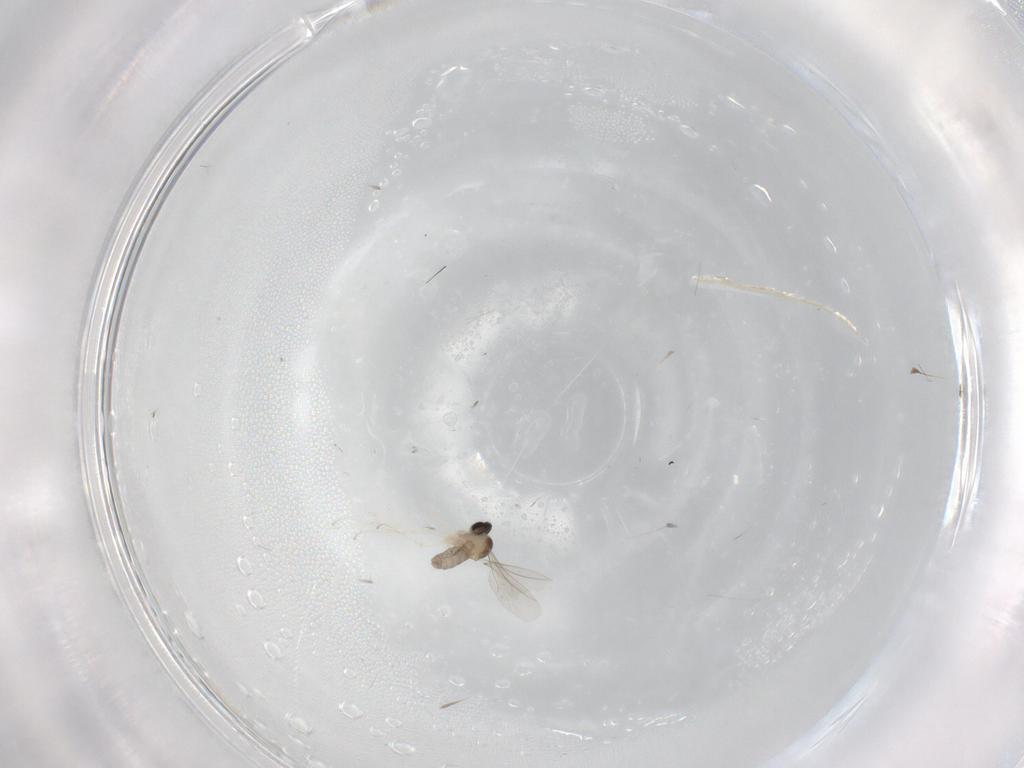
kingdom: Animalia
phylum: Arthropoda
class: Insecta
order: Diptera
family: Cecidomyiidae
